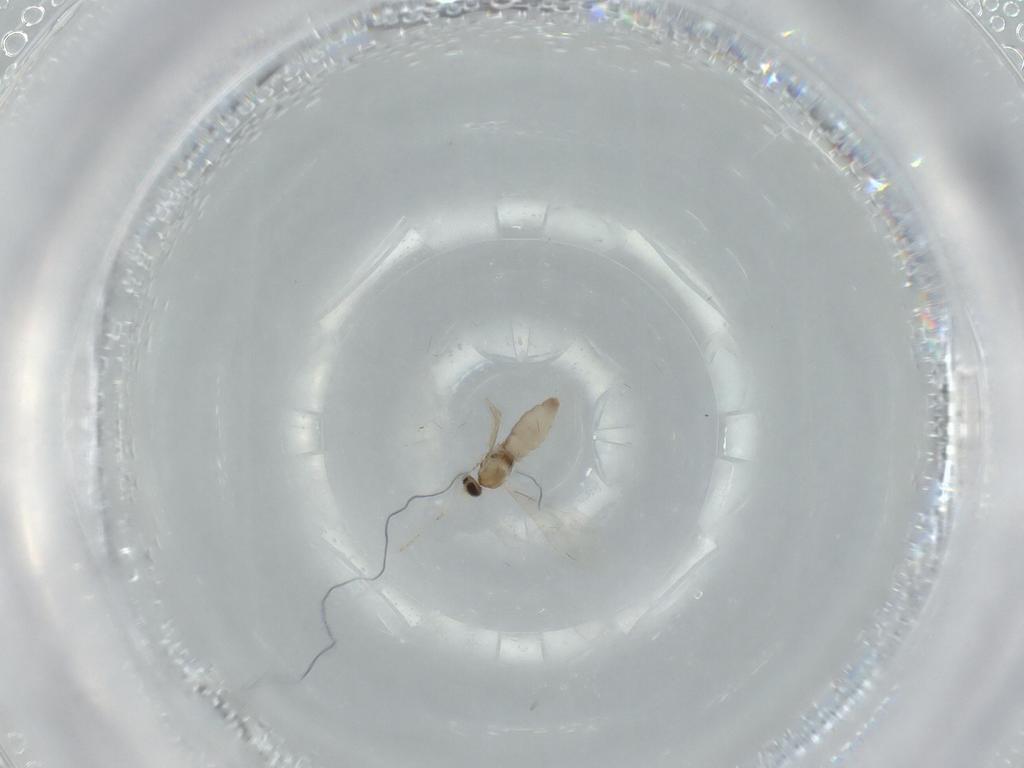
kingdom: Animalia
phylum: Arthropoda
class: Insecta
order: Diptera
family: Cecidomyiidae
